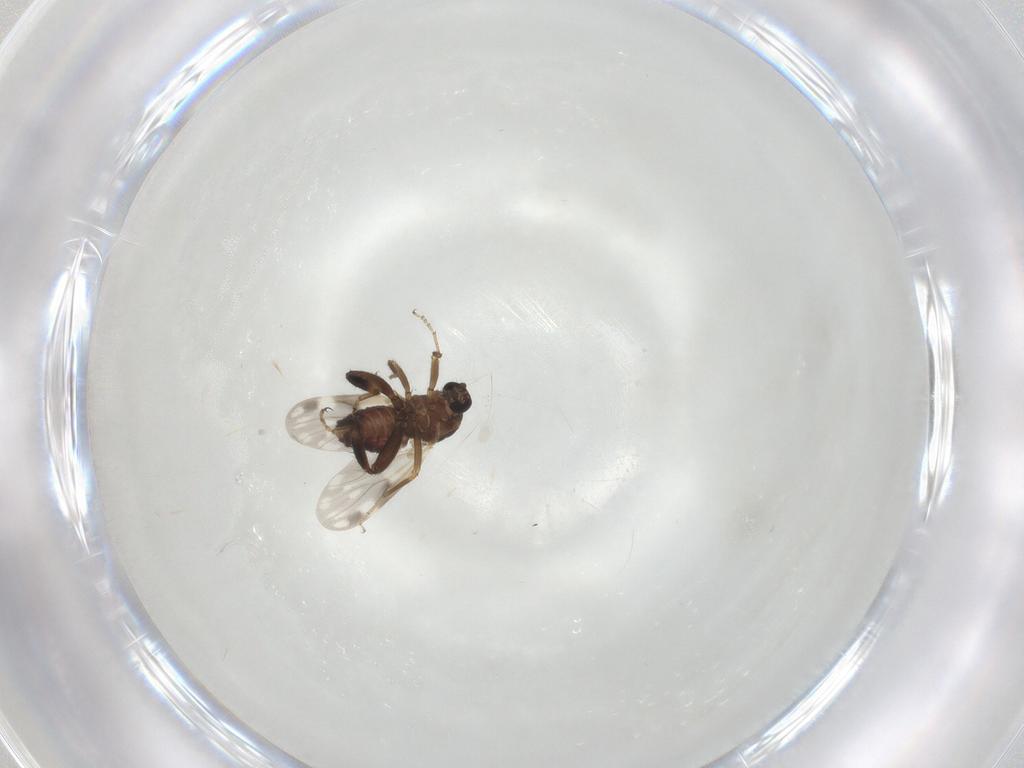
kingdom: Animalia
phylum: Arthropoda
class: Insecta
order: Diptera
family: Ceratopogonidae
